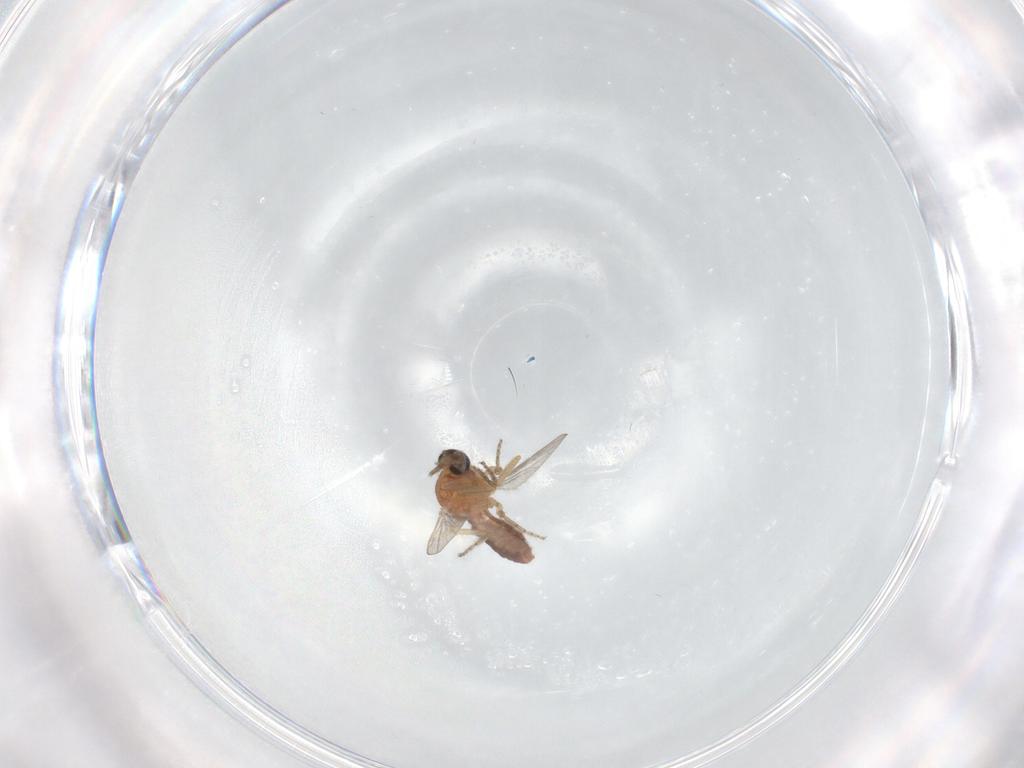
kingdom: Animalia
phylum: Arthropoda
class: Insecta
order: Diptera
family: Ceratopogonidae
